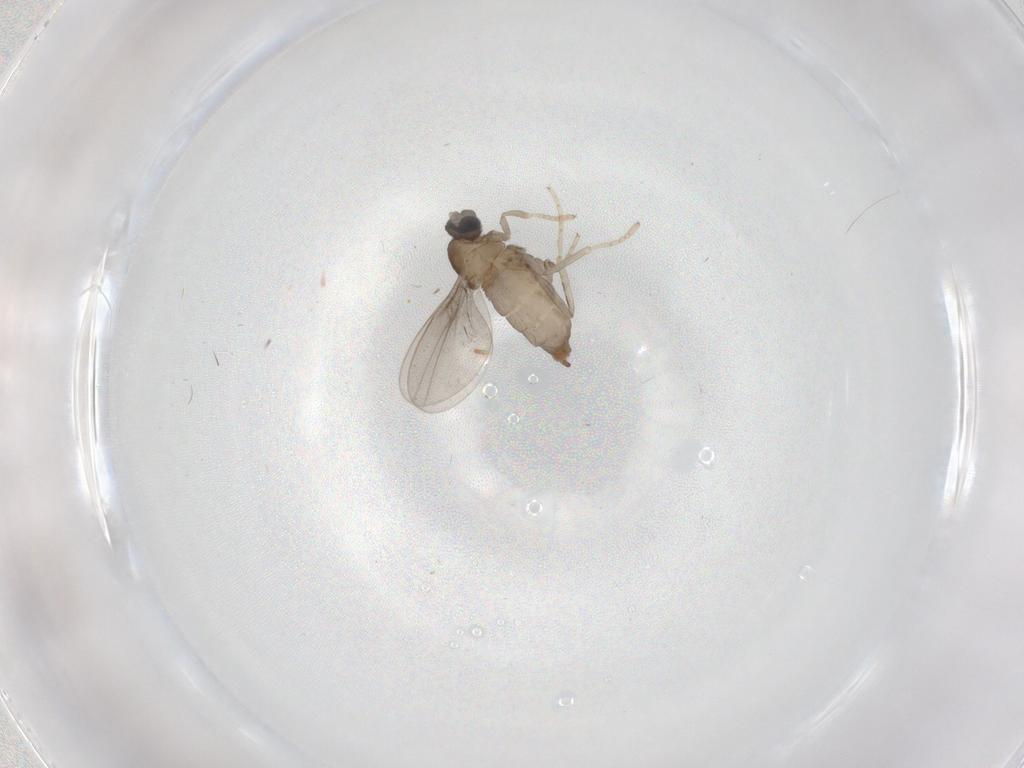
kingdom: Animalia
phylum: Arthropoda
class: Insecta
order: Diptera
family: Cecidomyiidae
